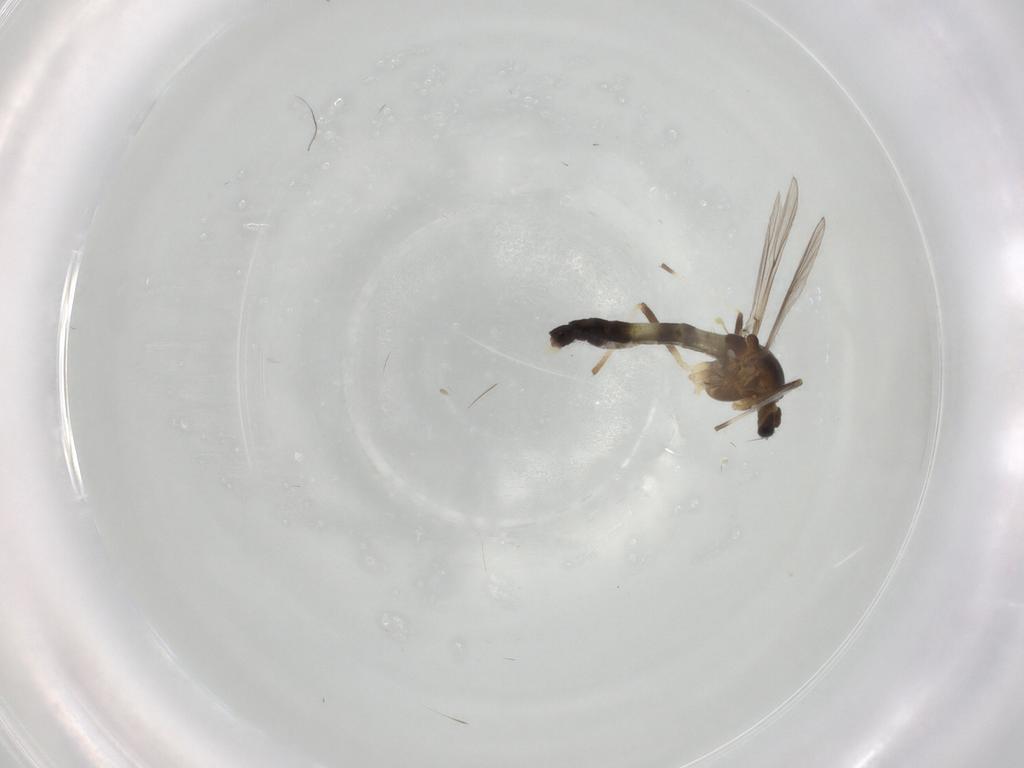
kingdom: Animalia
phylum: Arthropoda
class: Insecta
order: Diptera
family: Chironomidae
